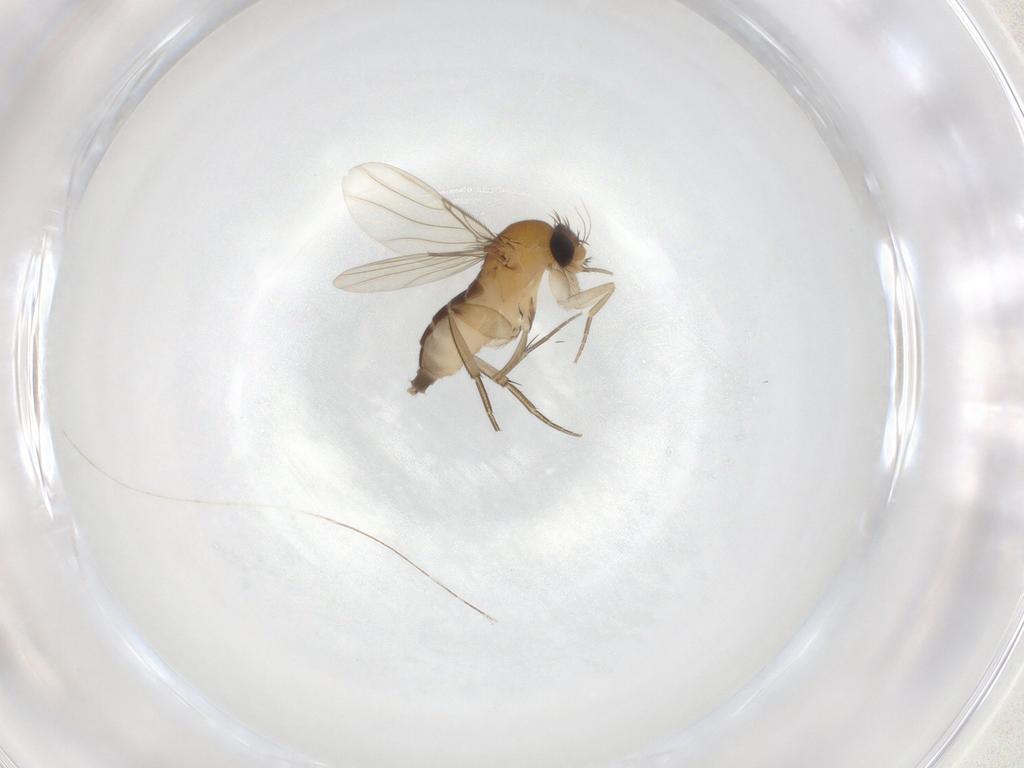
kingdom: Animalia
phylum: Arthropoda
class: Insecta
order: Diptera
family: Phoridae
